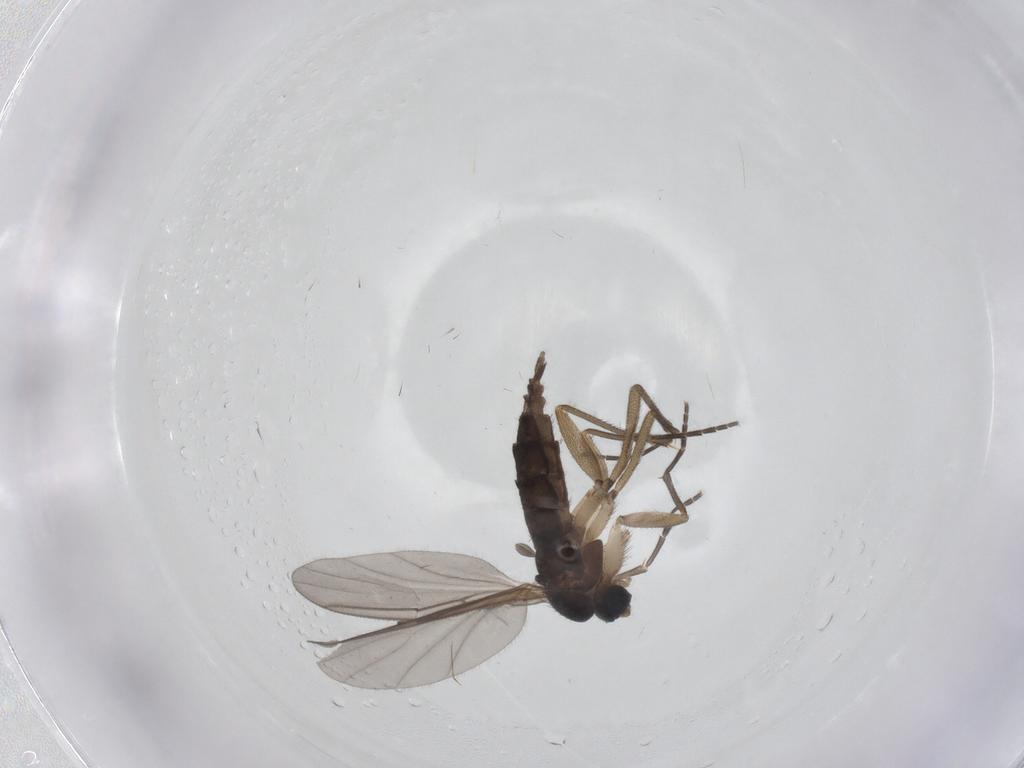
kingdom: Animalia
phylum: Arthropoda
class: Insecta
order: Diptera
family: Sciaridae
